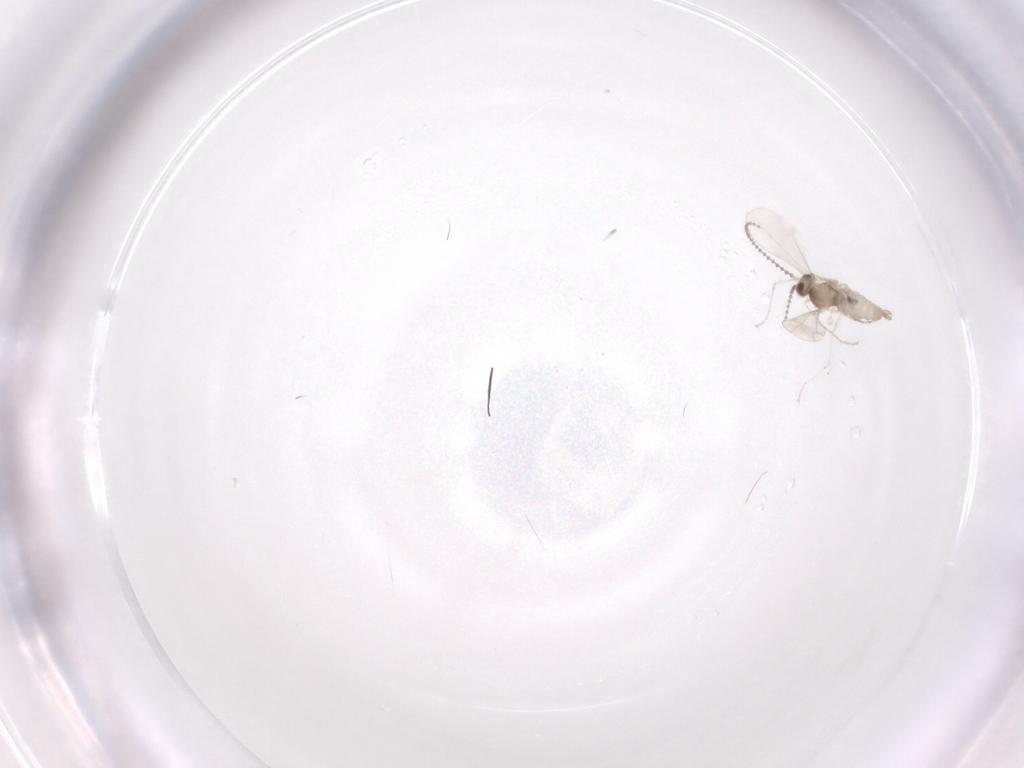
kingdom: Animalia
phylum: Arthropoda
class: Insecta
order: Diptera
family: Cecidomyiidae
